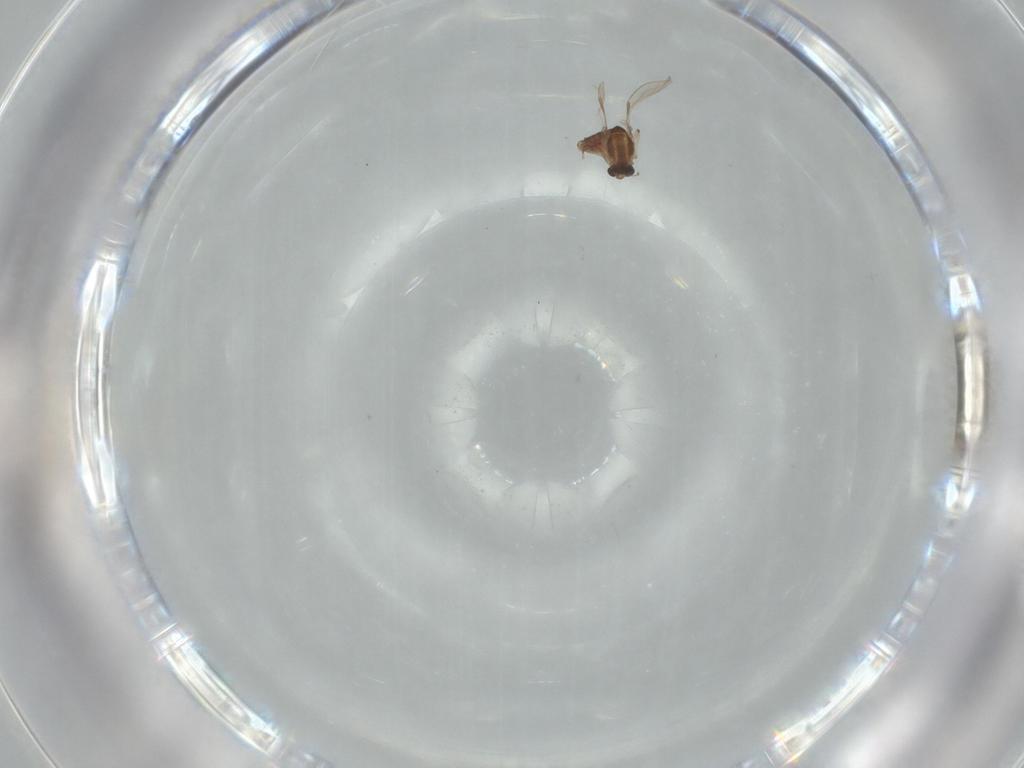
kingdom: Animalia
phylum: Arthropoda
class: Insecta
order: Diptera
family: Chironomidae
